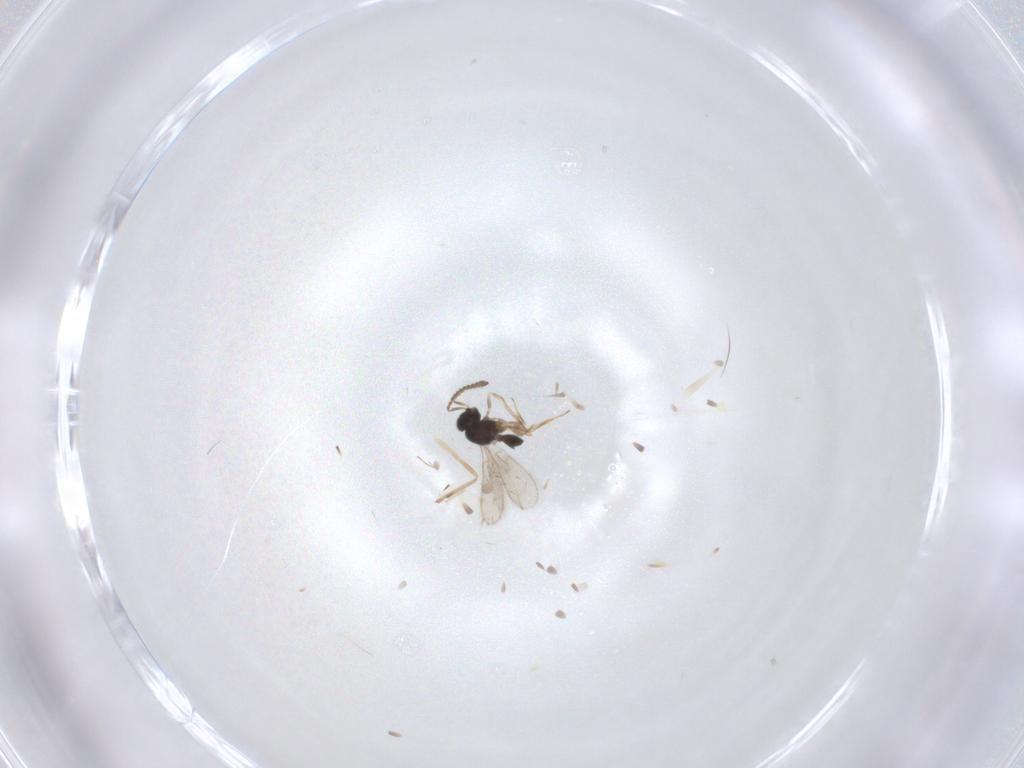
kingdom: Animalia
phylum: Arthropoda
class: Insecta
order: Hymenoptera
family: Scelionidae
